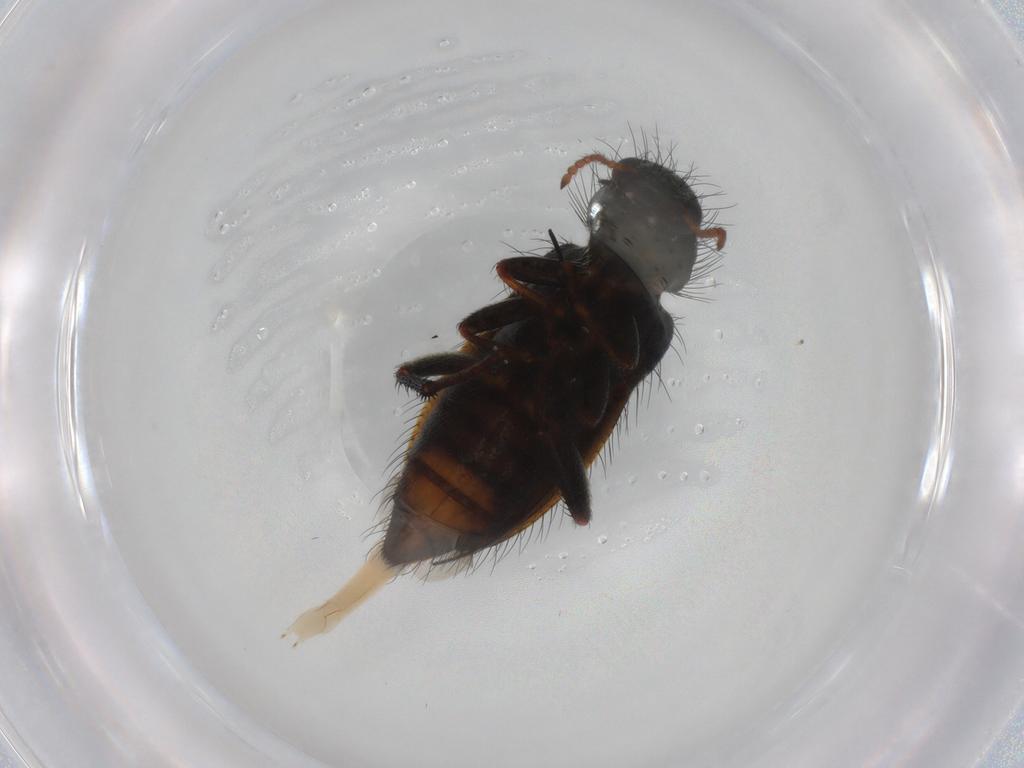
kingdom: Animalia
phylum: Arthropoda
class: Insecta
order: Coleoptera
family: Melyridae
